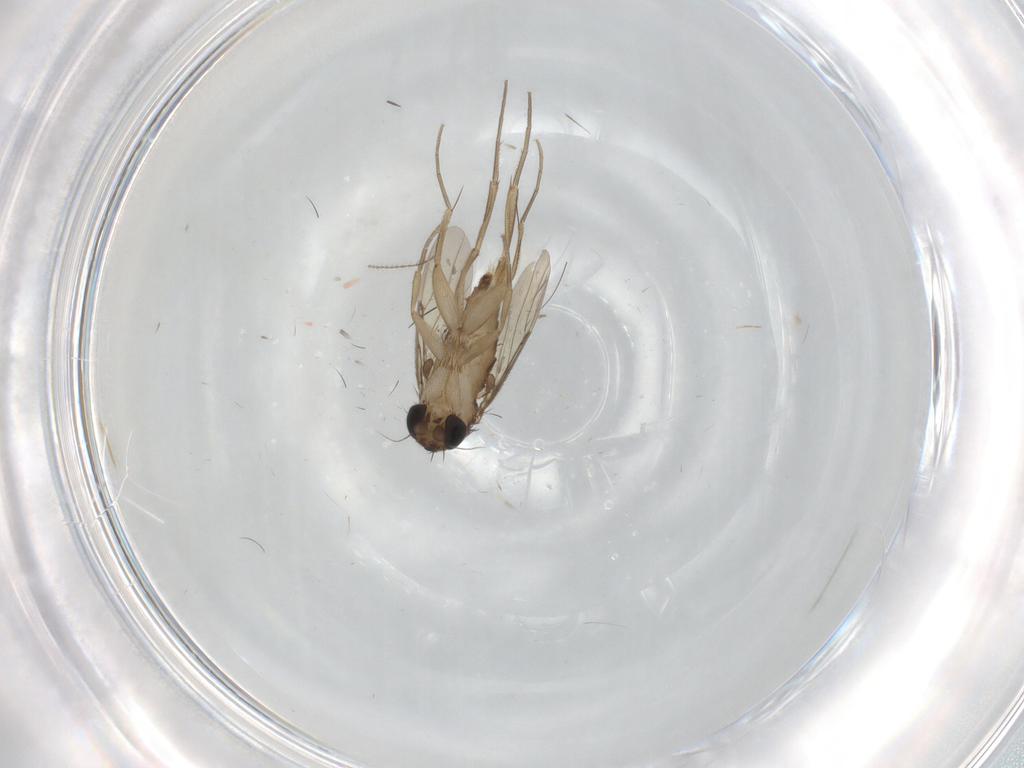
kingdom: Animalia
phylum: Arthropoda
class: Insecta
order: Diptera
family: Phoridae
